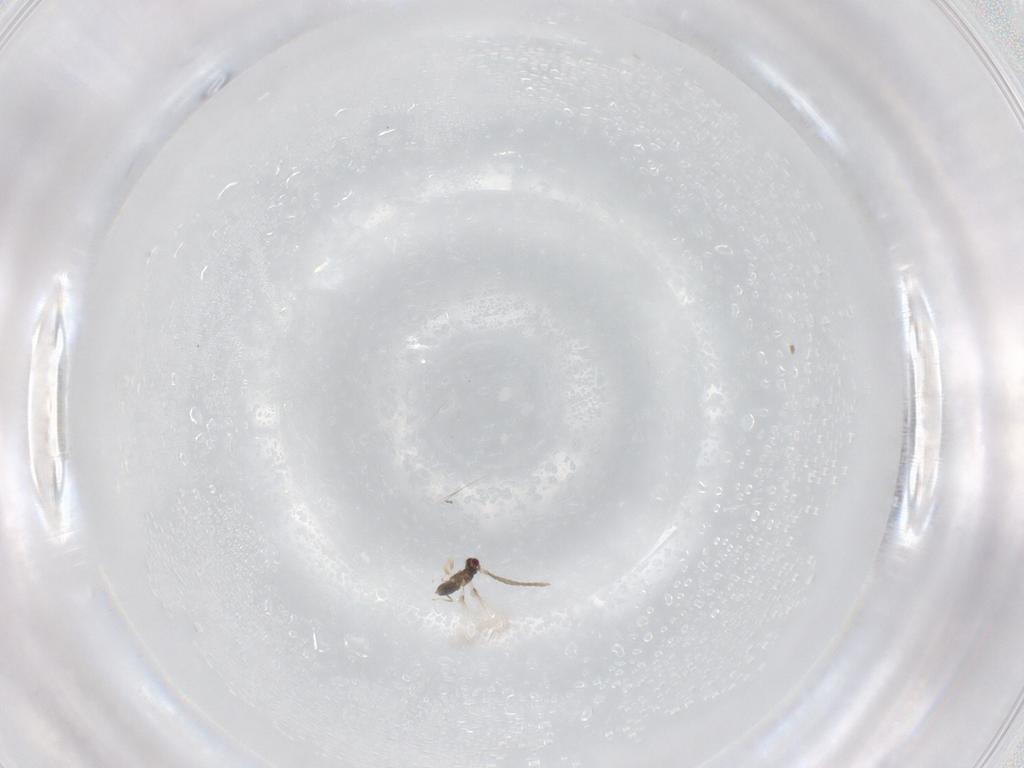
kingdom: Animalia
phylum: Arthropoda
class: Insecta
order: Hymenoptera
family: Mymaridae
